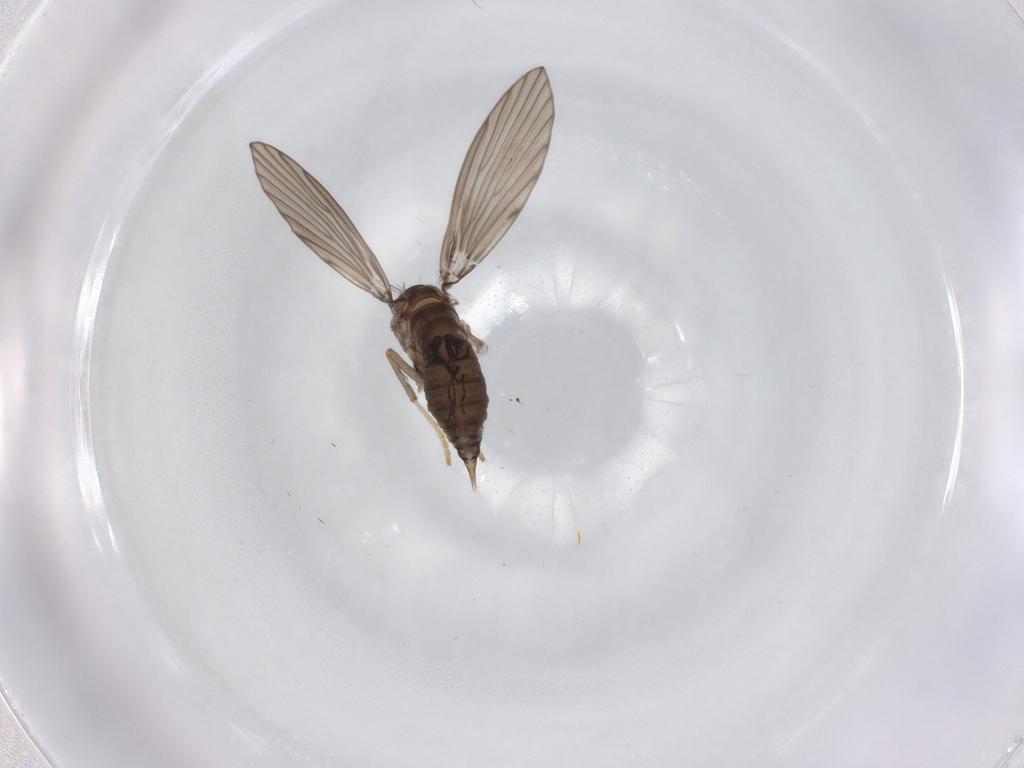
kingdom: Animalia
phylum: Arthropoda
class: Insecta
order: Diptera
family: Psychodidae
